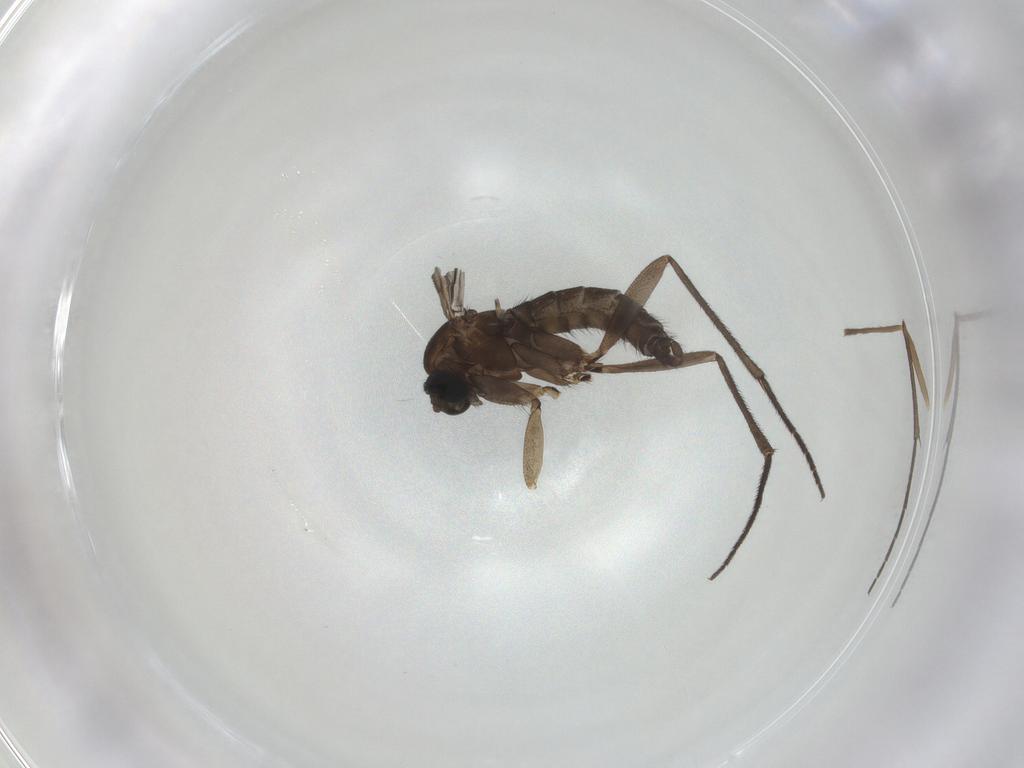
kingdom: Animalia
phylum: Arthropoda
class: Insecta
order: Diptera
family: Sciaridae
